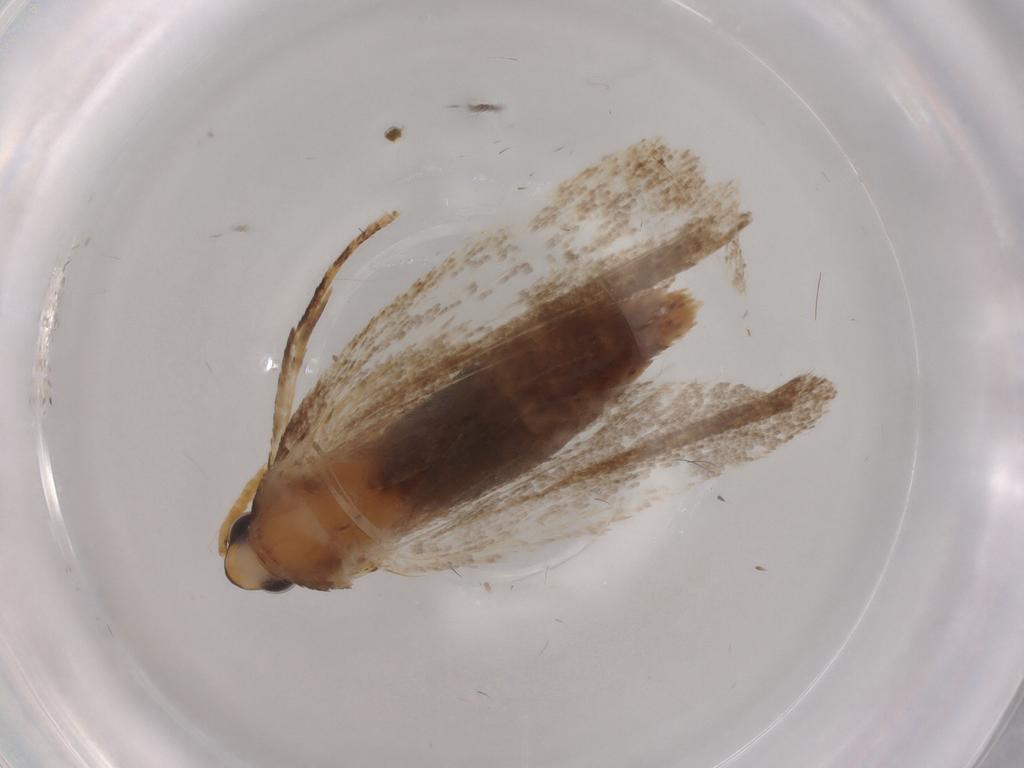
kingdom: Animalia
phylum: Arthropoda
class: Insecta
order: Lepidoptera
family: Lecithoceridae
